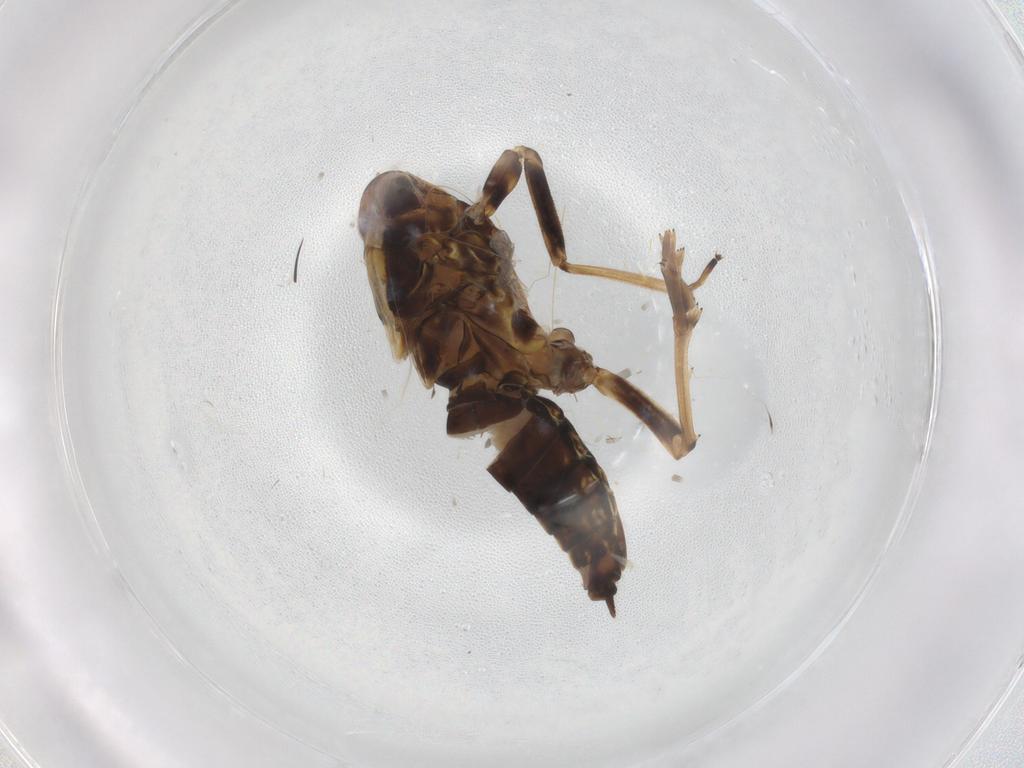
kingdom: Animalia
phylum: Arthropoda
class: Insecta
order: Hemiptera
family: Delphacidae
